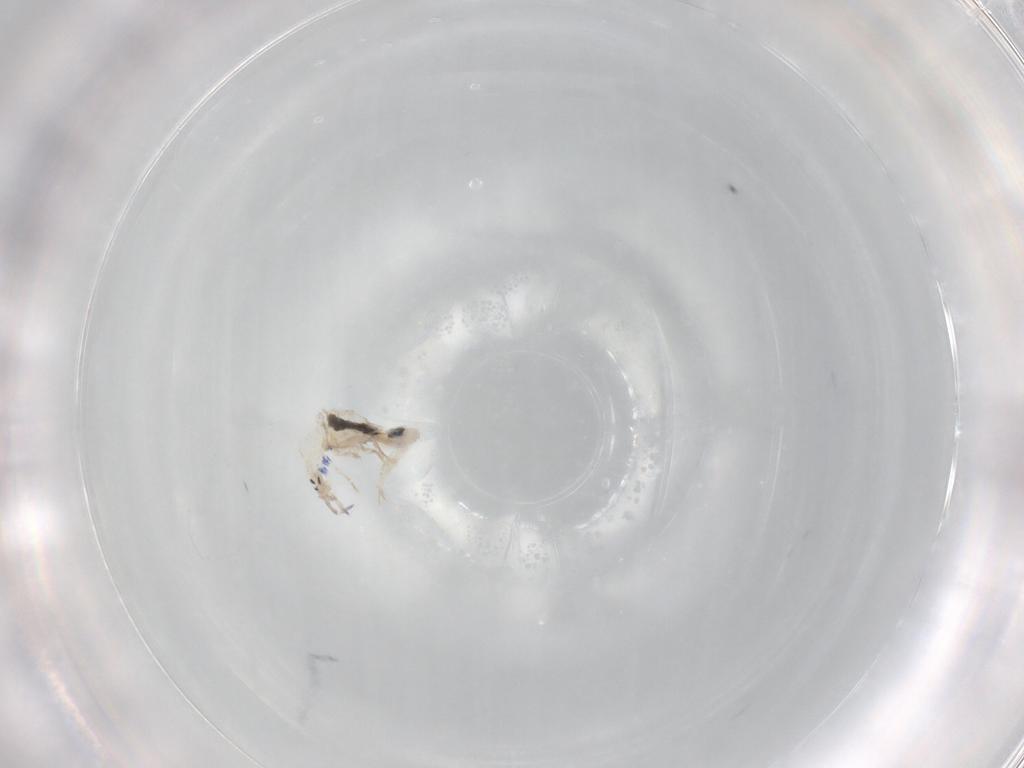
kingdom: Animalia
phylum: Arthropoda
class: Collembola
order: Entomobryomorpha
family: Entomobryidae
